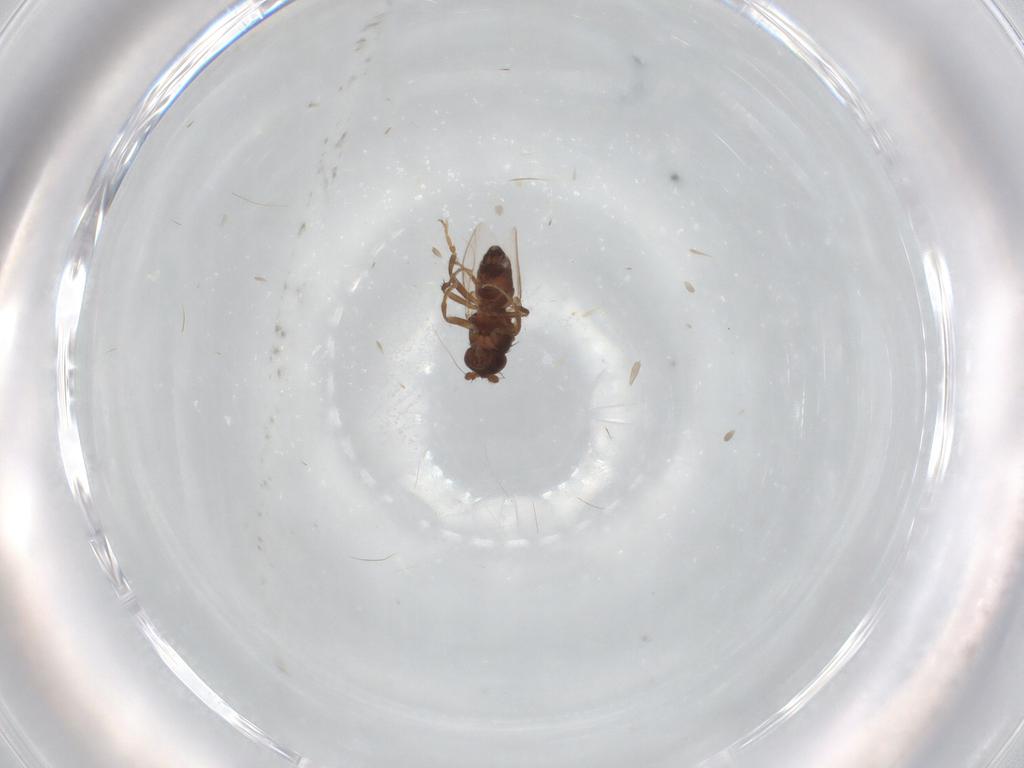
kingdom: Animalia
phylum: Arthropoda
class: Insecta
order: Diptera
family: Sphaeroceridae
